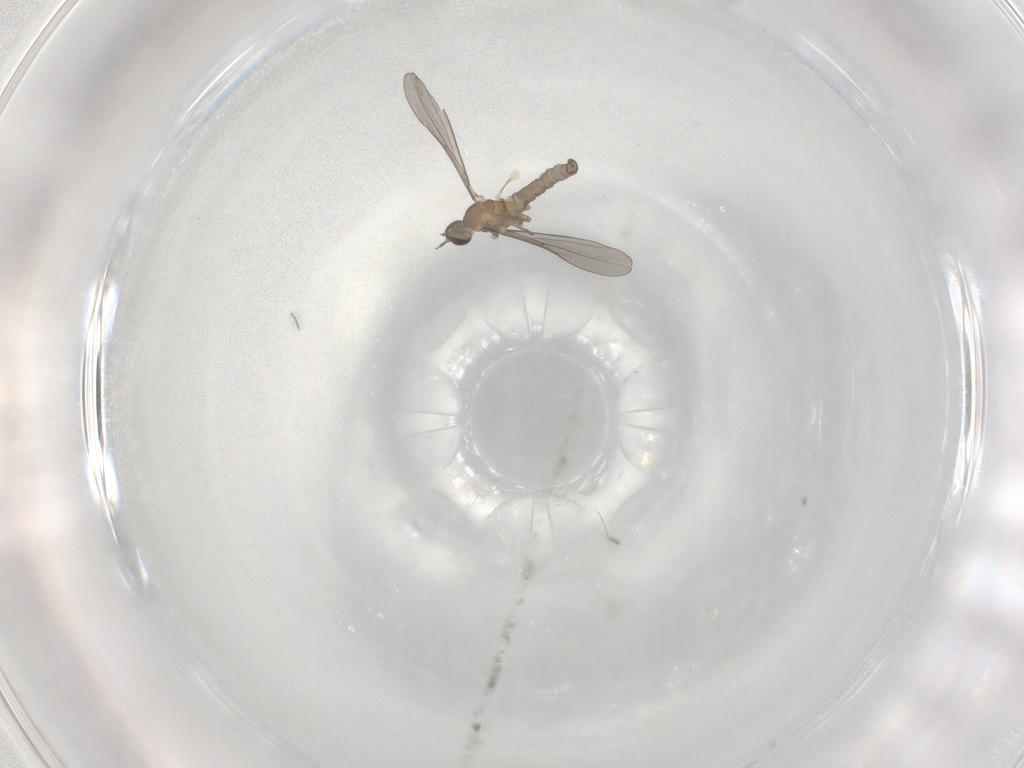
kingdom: Animalia
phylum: Arthropoda
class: Insecta
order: Diptera
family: Cecidomyiidae
